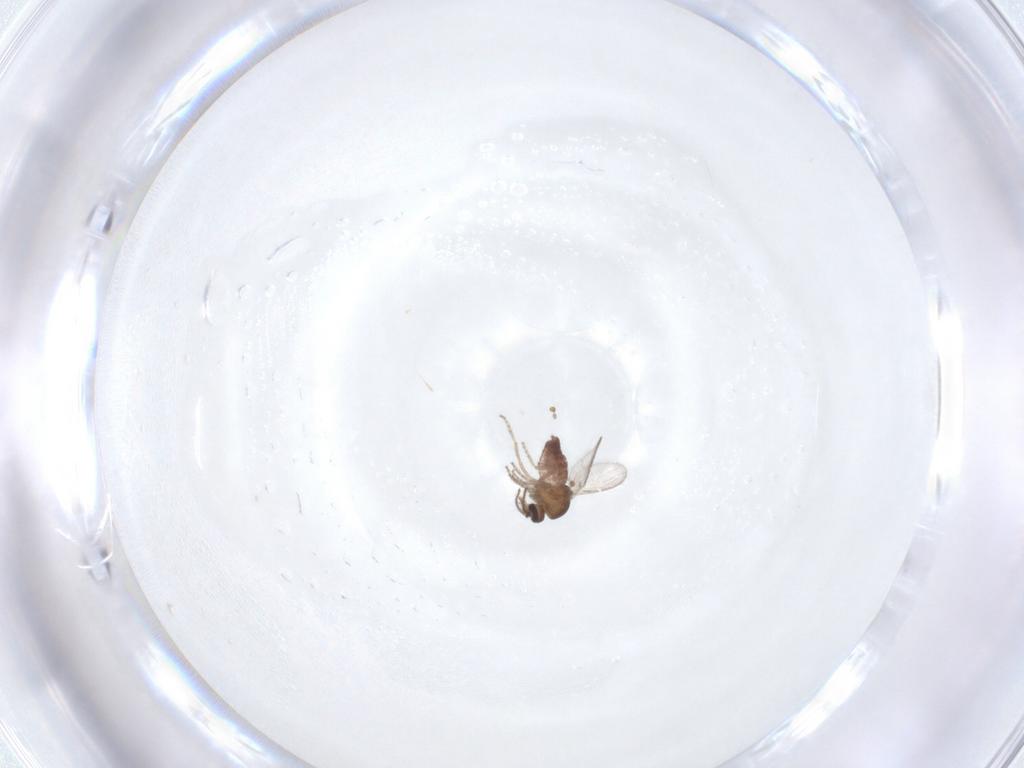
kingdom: Animalia
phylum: Arthropoda
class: Insecta
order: Diptera
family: Ceratopogonidae
